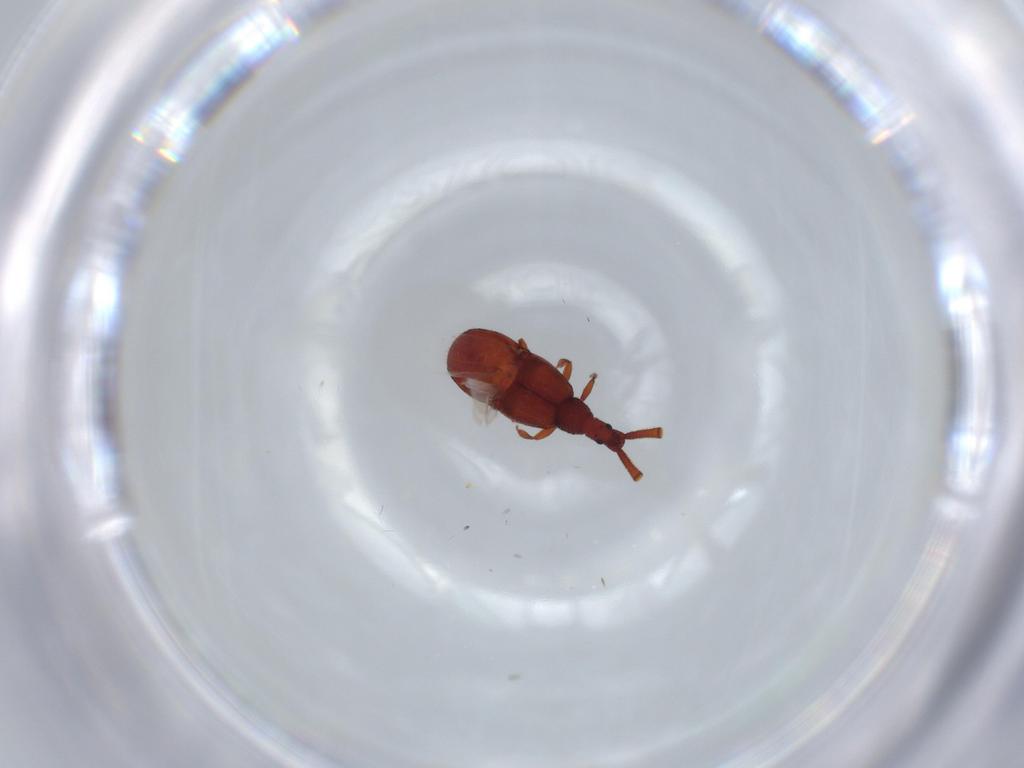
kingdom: Animalia
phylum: Arthropoda
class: Insecta
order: Coleoptera
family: Staphylinidae
